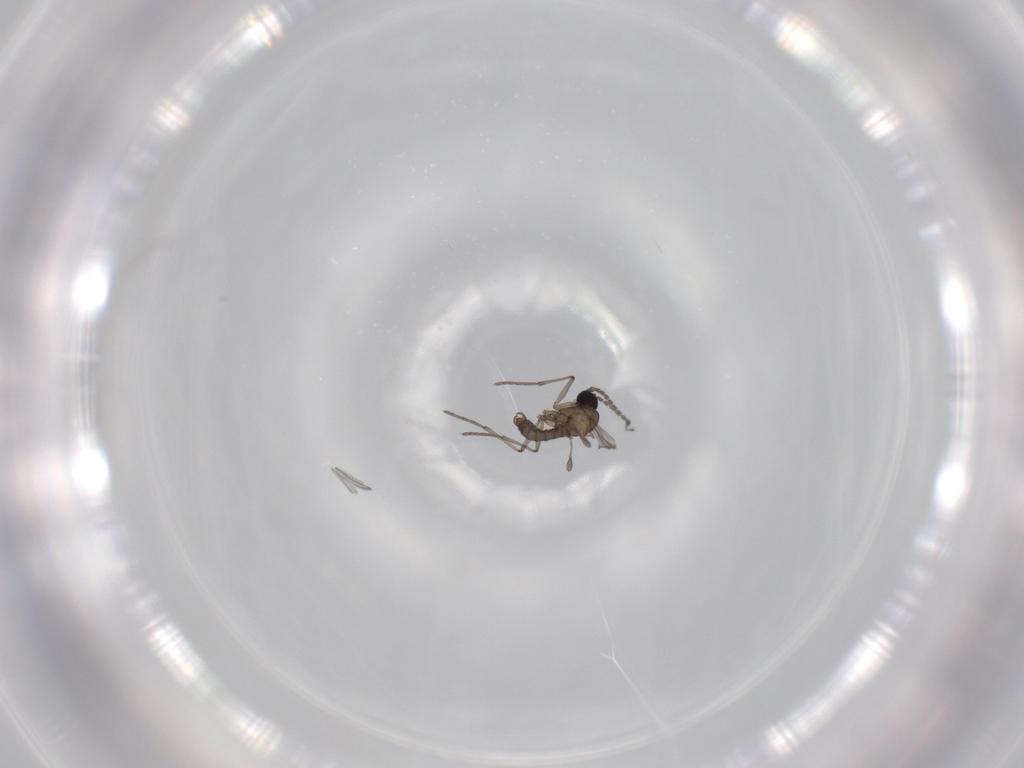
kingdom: Animalia
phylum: Arthropoda
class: Insecta
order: Diptera
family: Sciaridae
